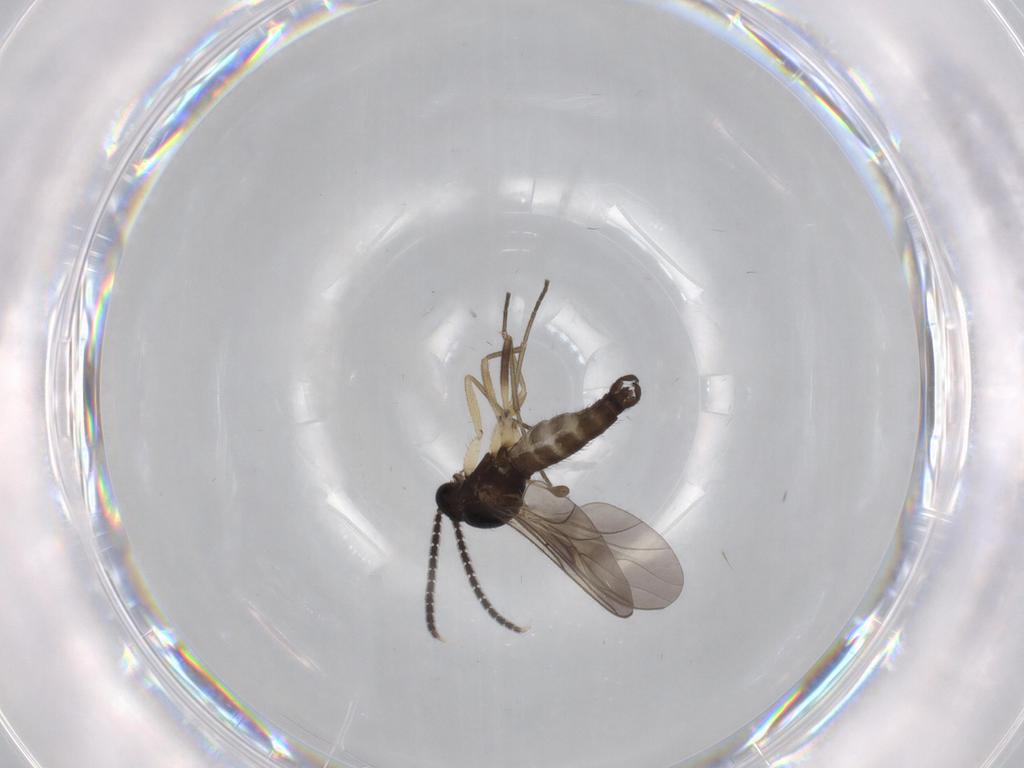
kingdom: Animalia
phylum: Arthropoda
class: Insecta
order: Diptera
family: Sciaridae
